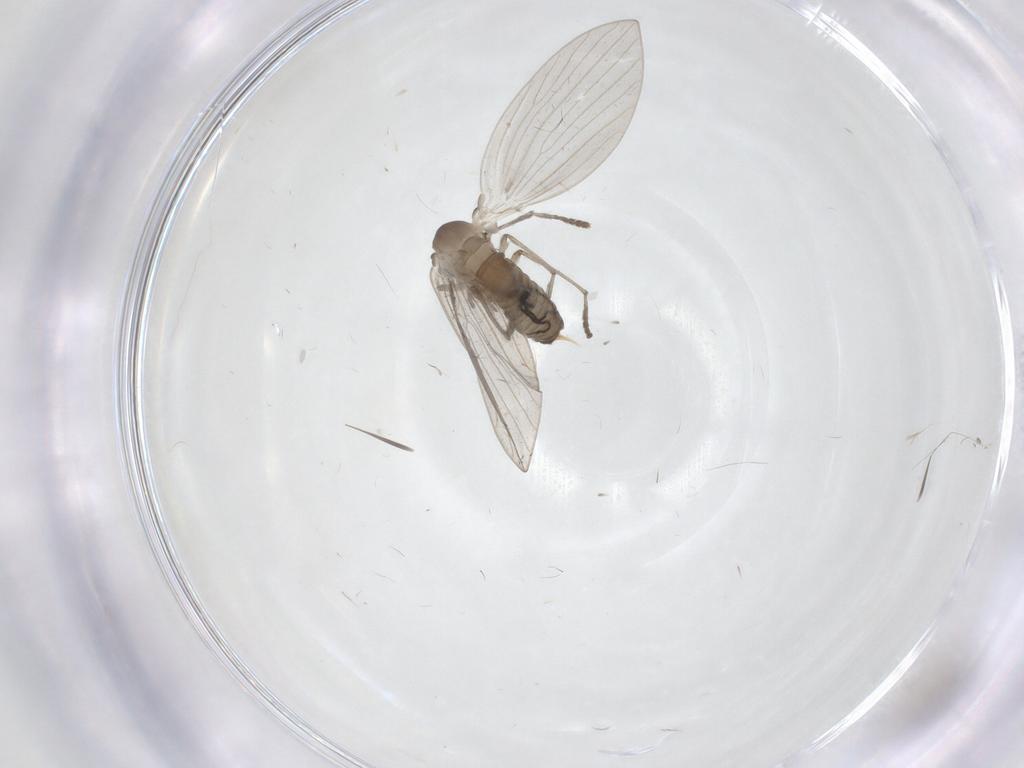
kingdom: Animalia
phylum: Arthropoda
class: Insecta
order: Diptera
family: Psychodidae
